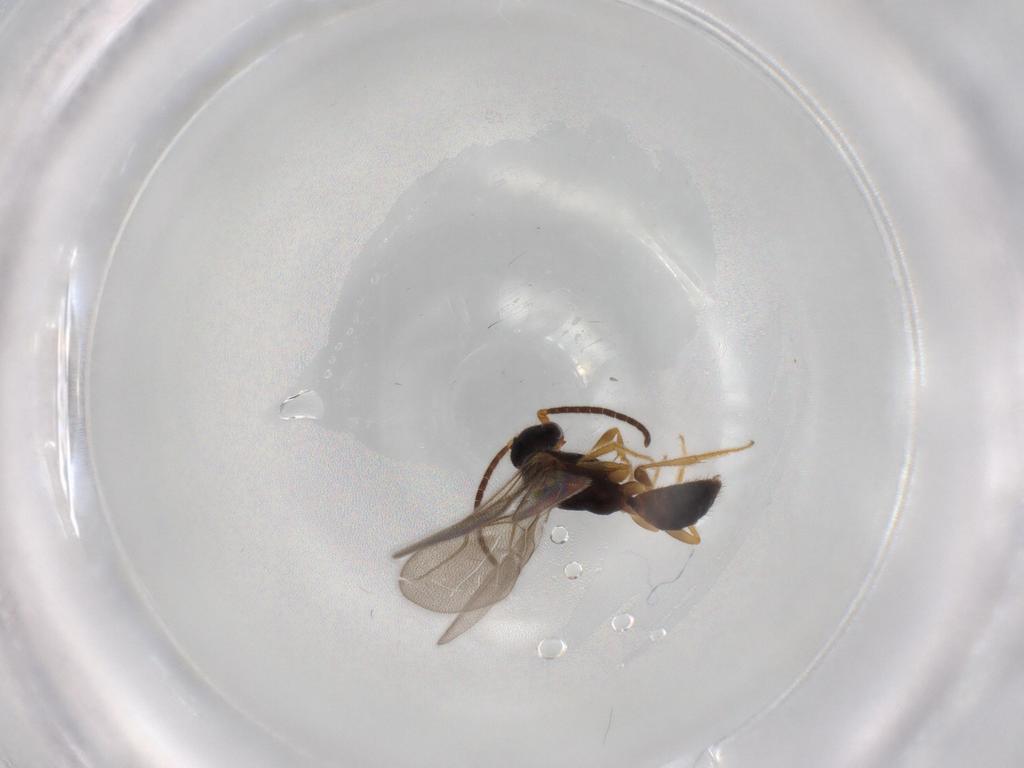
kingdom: Animalia
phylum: Arthropoda
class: Insecta
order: Hymenoptera
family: Bethylidae
